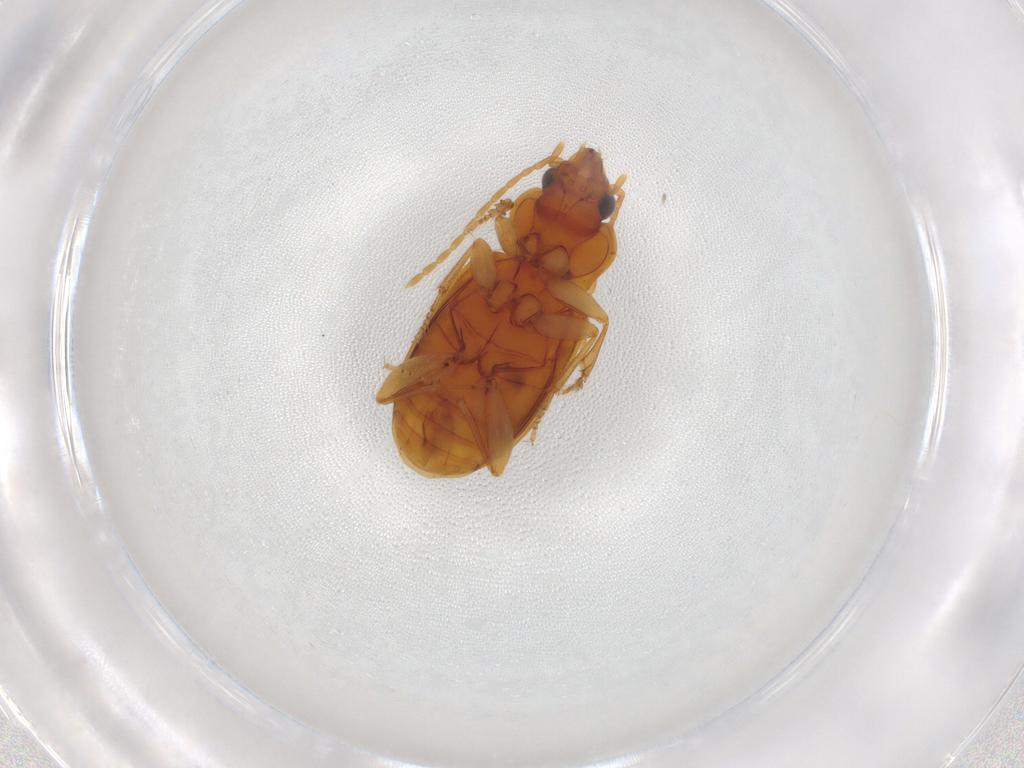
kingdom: Animalia
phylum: Arthropoda
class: Insecta
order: Coleoptera
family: Carabidae
